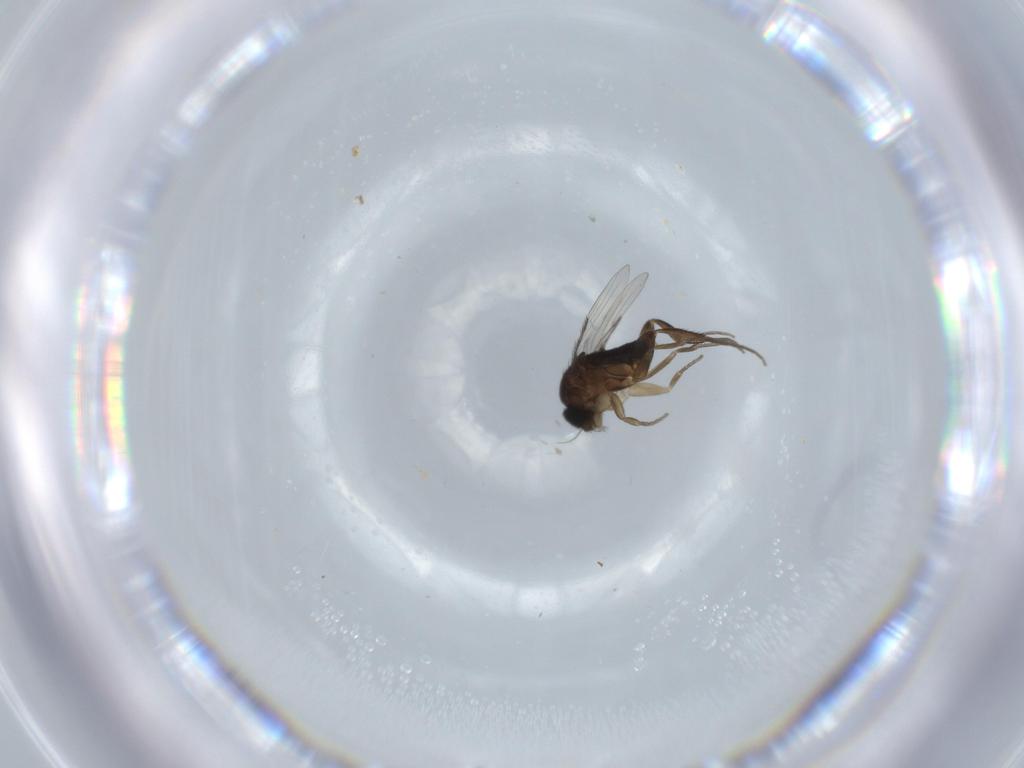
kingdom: Animalia
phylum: Arthropoda
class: Insecta
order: Diptera
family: Phoridae
